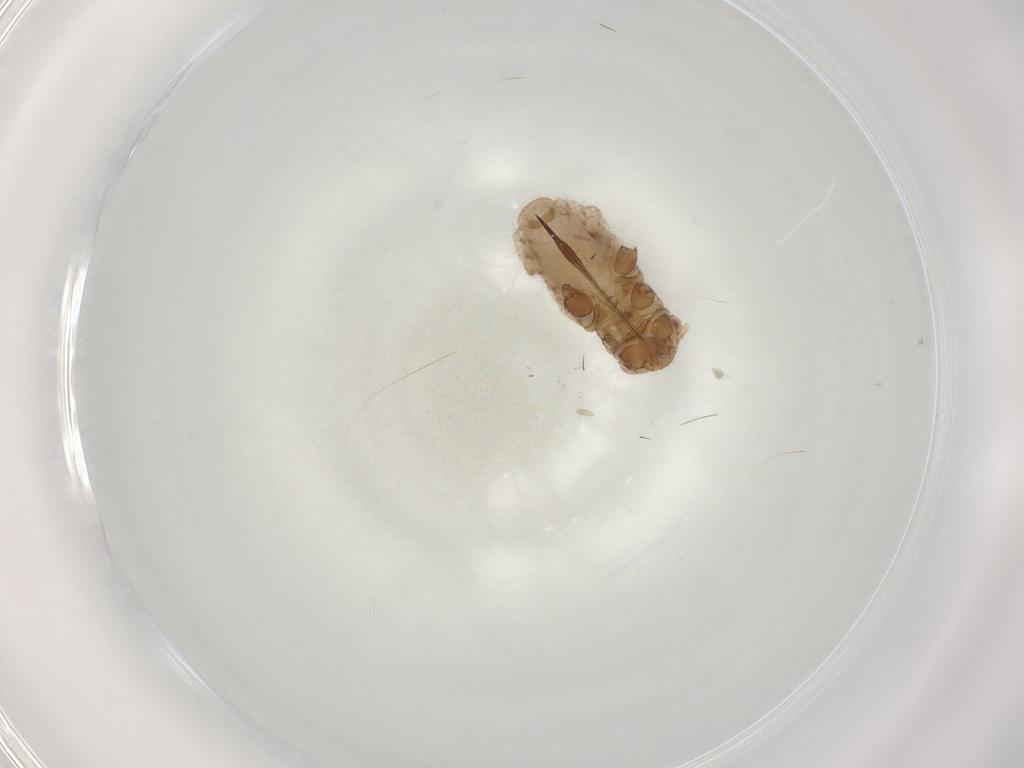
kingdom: Animalia
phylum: Arthropoda
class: Insecta
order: Hemiptera
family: Aphididae
